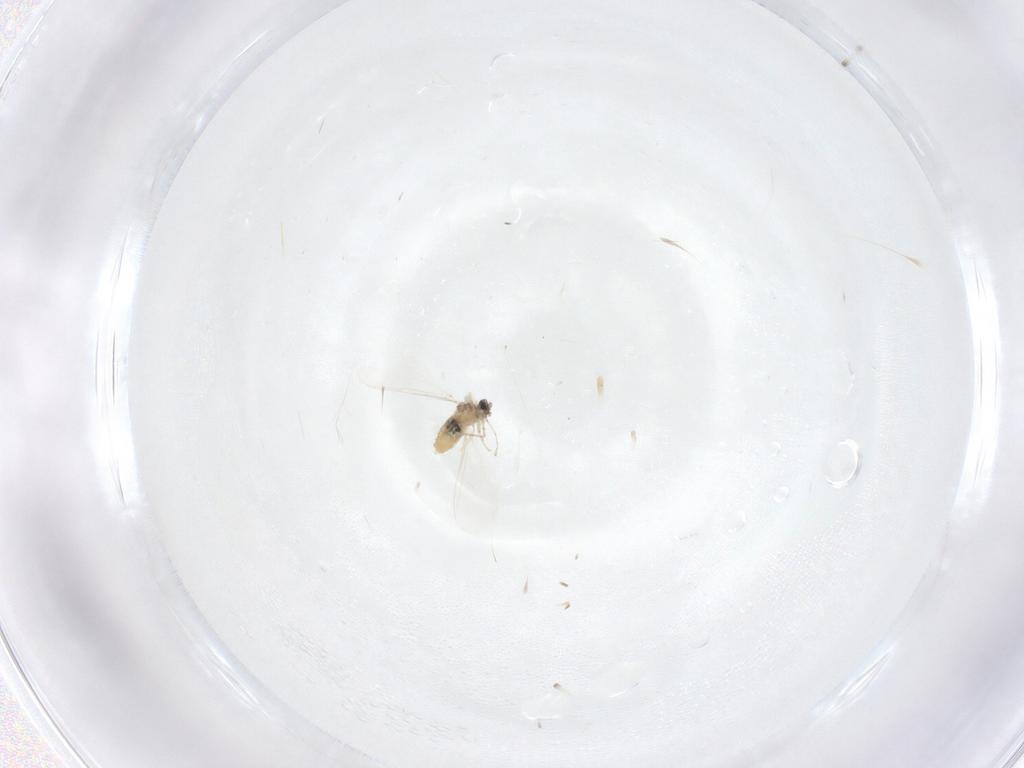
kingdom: Animalia
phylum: Arthropoda
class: Insecta
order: Diptera
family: Cecidomyiidae
